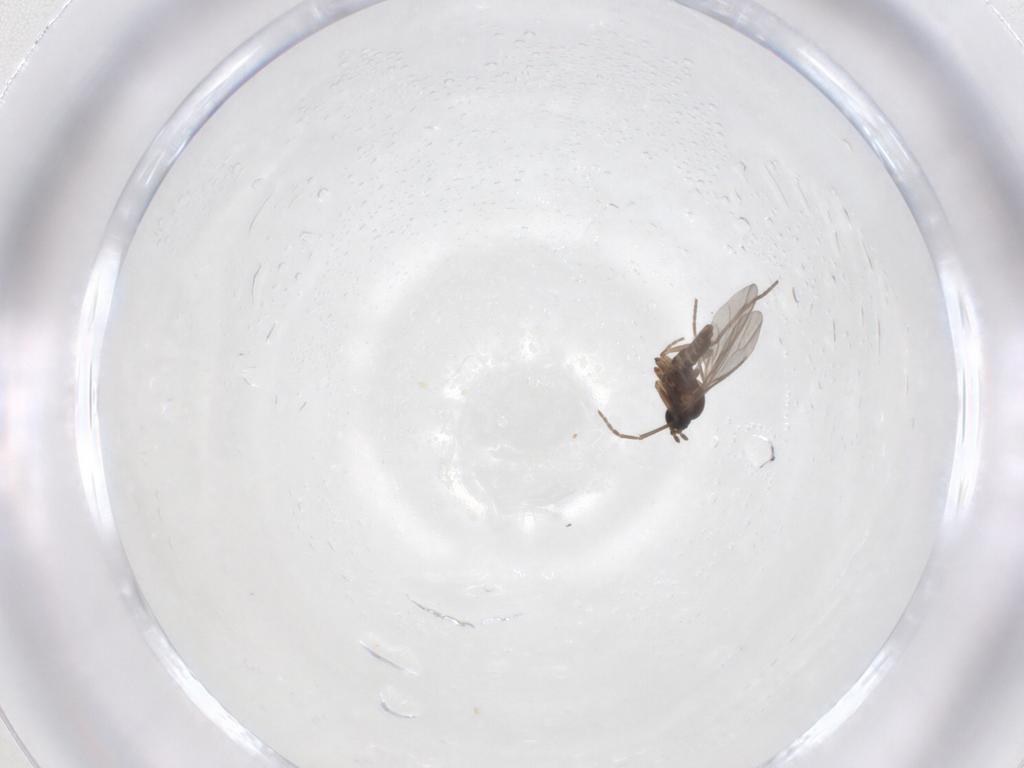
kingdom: Animalia
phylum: Arthropoda
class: Insecta
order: Diptera
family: Sciaridae
